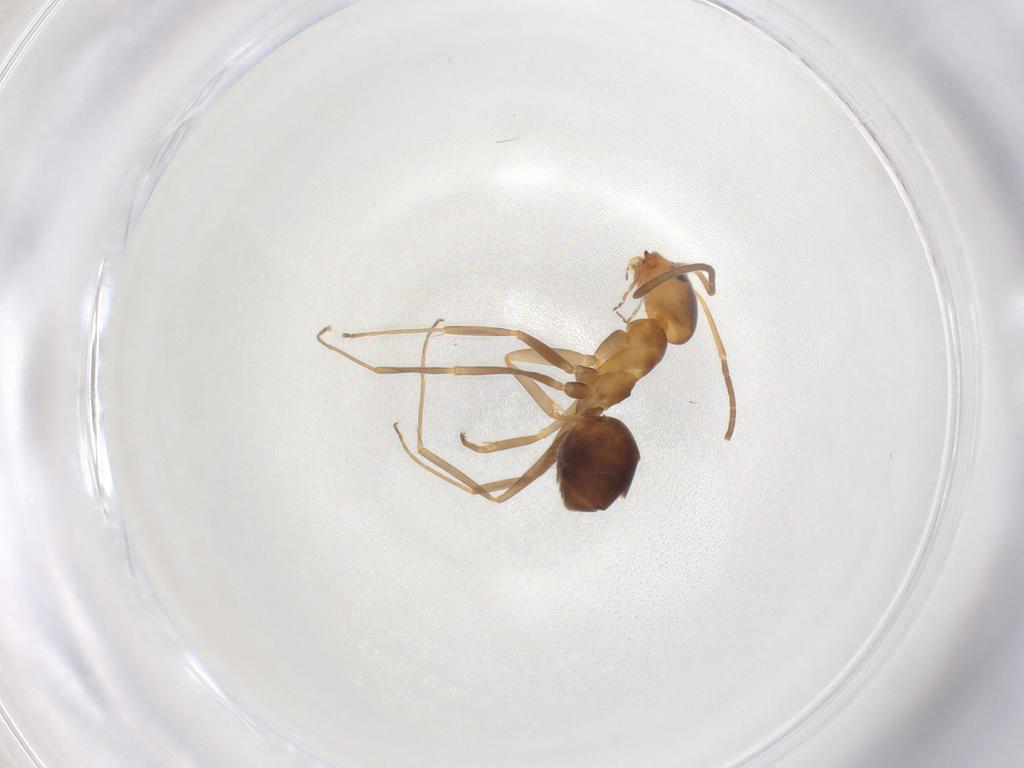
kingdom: Animalia
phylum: Arthropoda
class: Insecta
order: Hymenoptera
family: Formicidae
